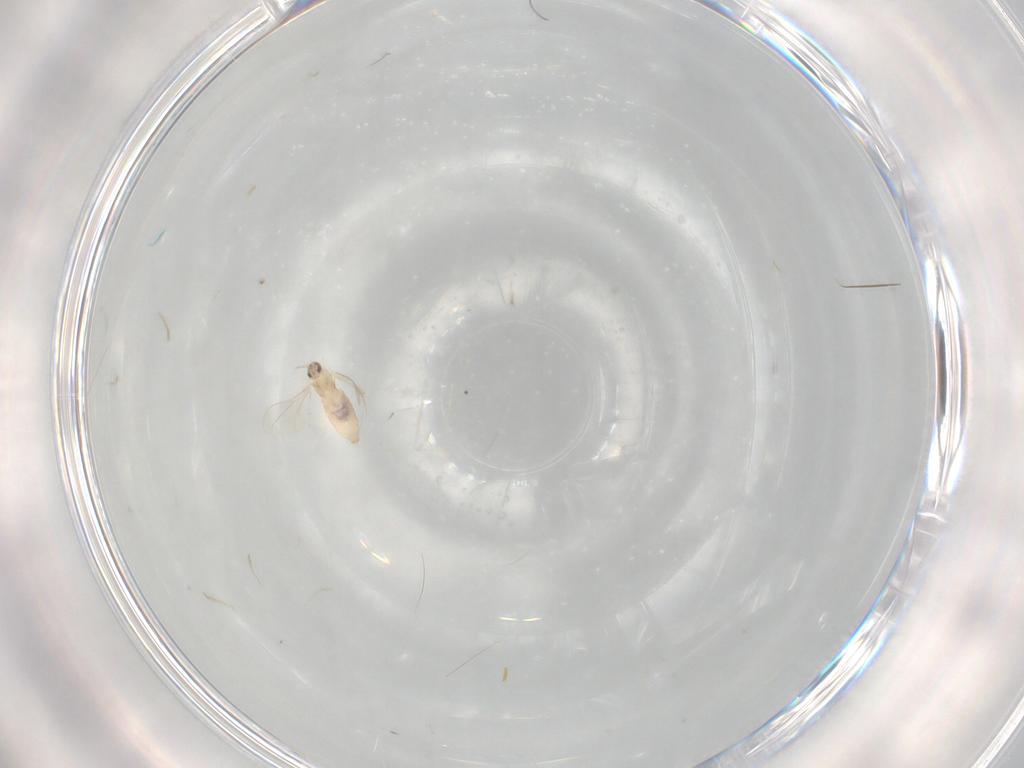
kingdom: Animalia
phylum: Arthropoda
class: Insecta
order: Diptera
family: Cecidomyiidae
